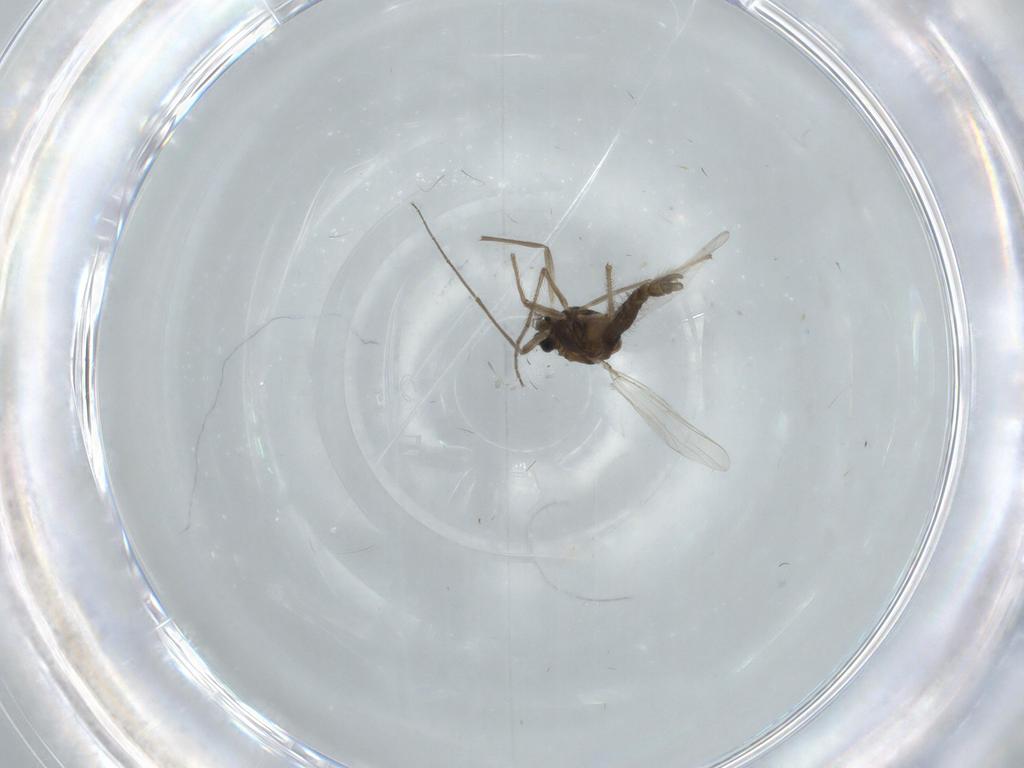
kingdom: Animalia
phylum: Arthropoda
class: Insecta
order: Diptera
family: Chironomidae
